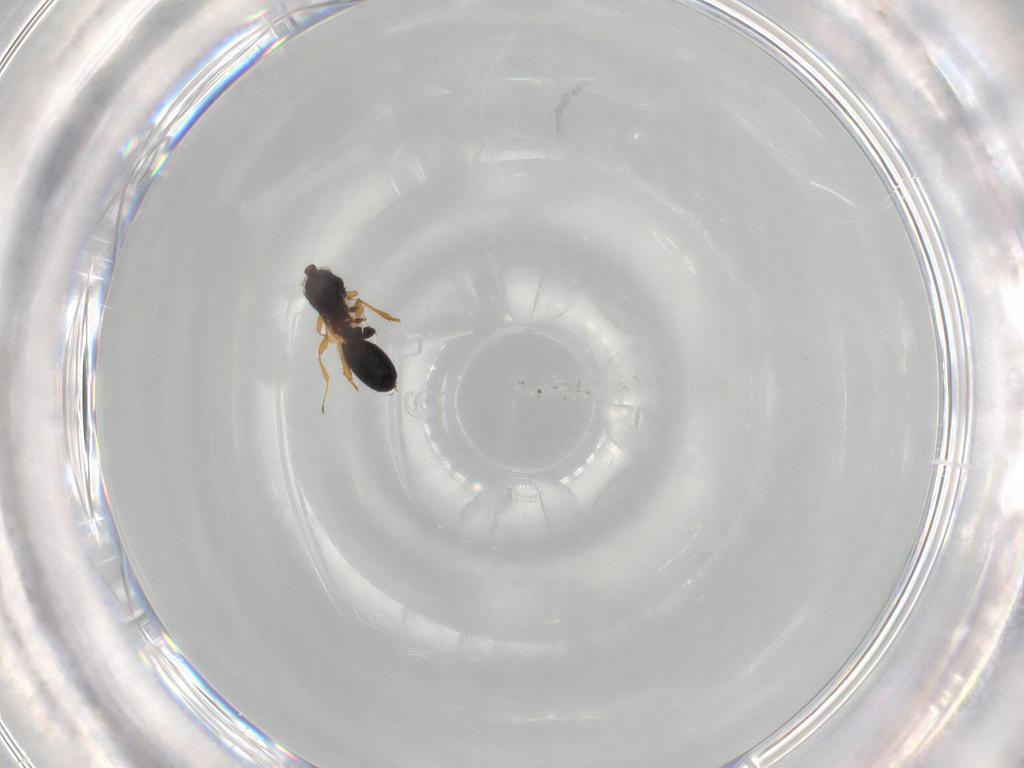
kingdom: Animalia
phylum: Arthropoda
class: Insecta
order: Hymenoptera
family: Diapriidae
